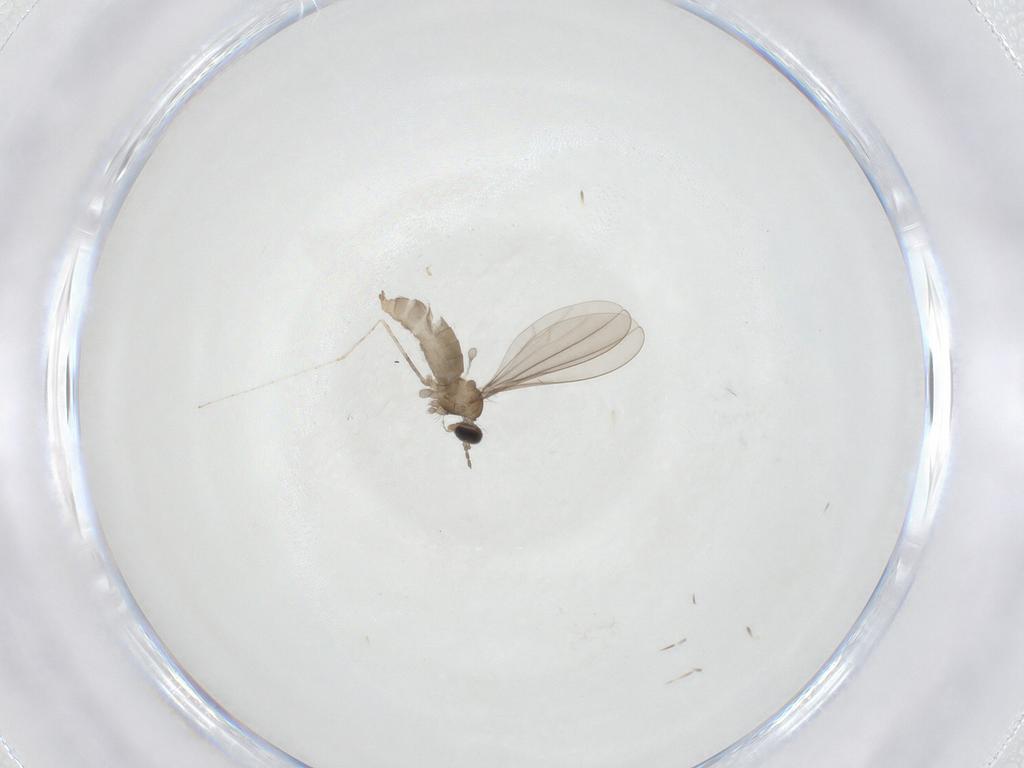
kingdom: Animalia
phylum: Arthropoda
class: Insecta
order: Diptera
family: Cecidomyiidae
